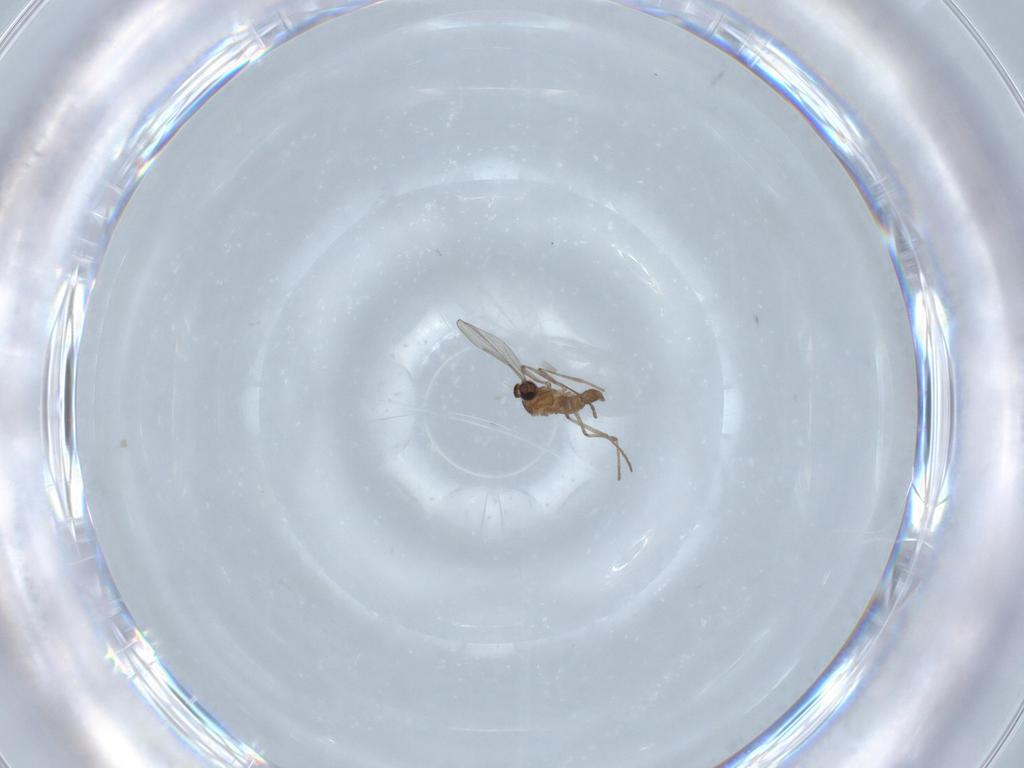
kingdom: Animalia
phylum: Arthropoda
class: Insecta
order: Diptera
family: Cecidomyiidae
